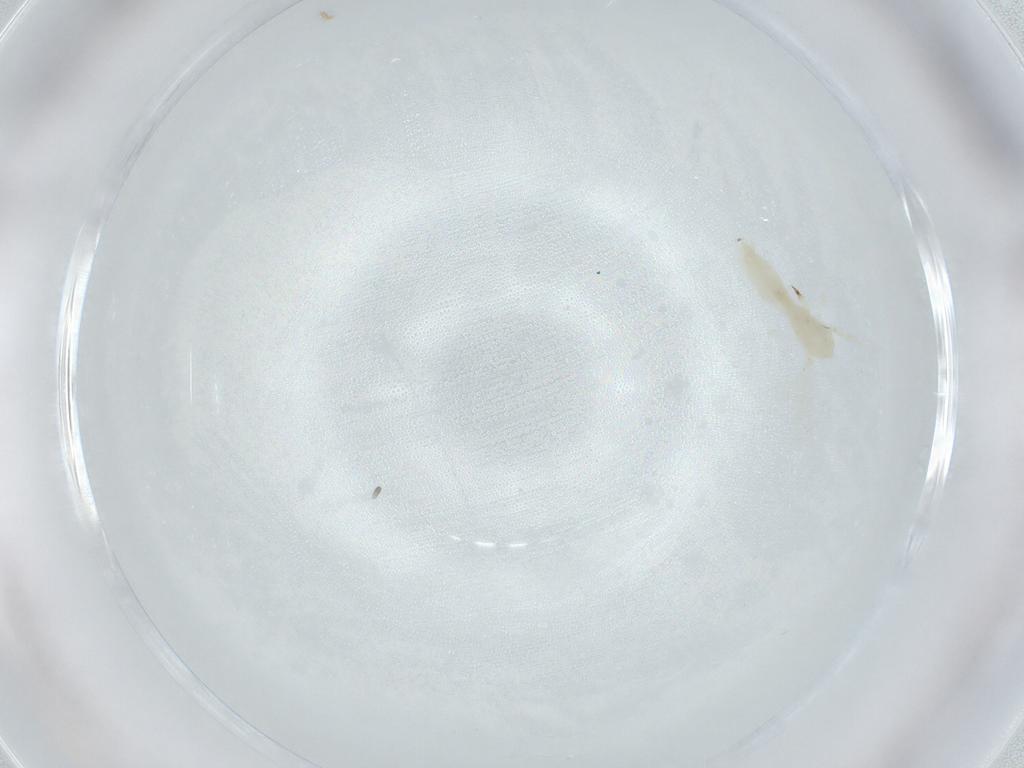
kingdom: Animalia
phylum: Arthropoda
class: Insecta
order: Diptera
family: Cecidomyiidae
